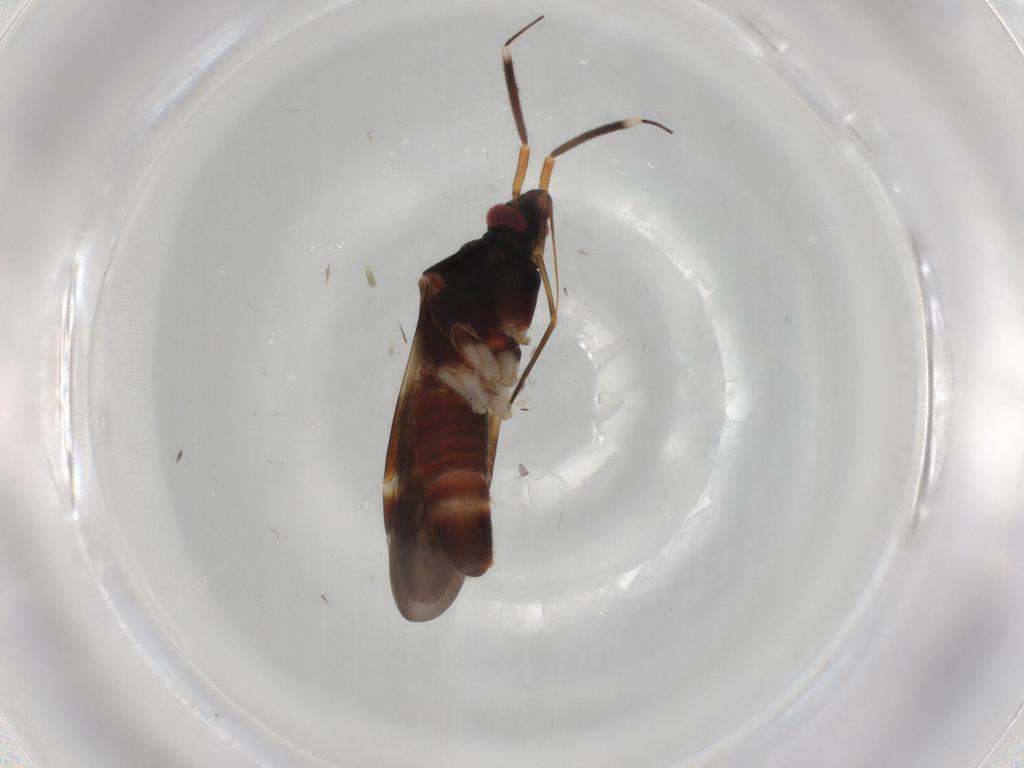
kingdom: Animalia
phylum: Arthropoda
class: Insecta
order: Hemiptera
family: Miridae
